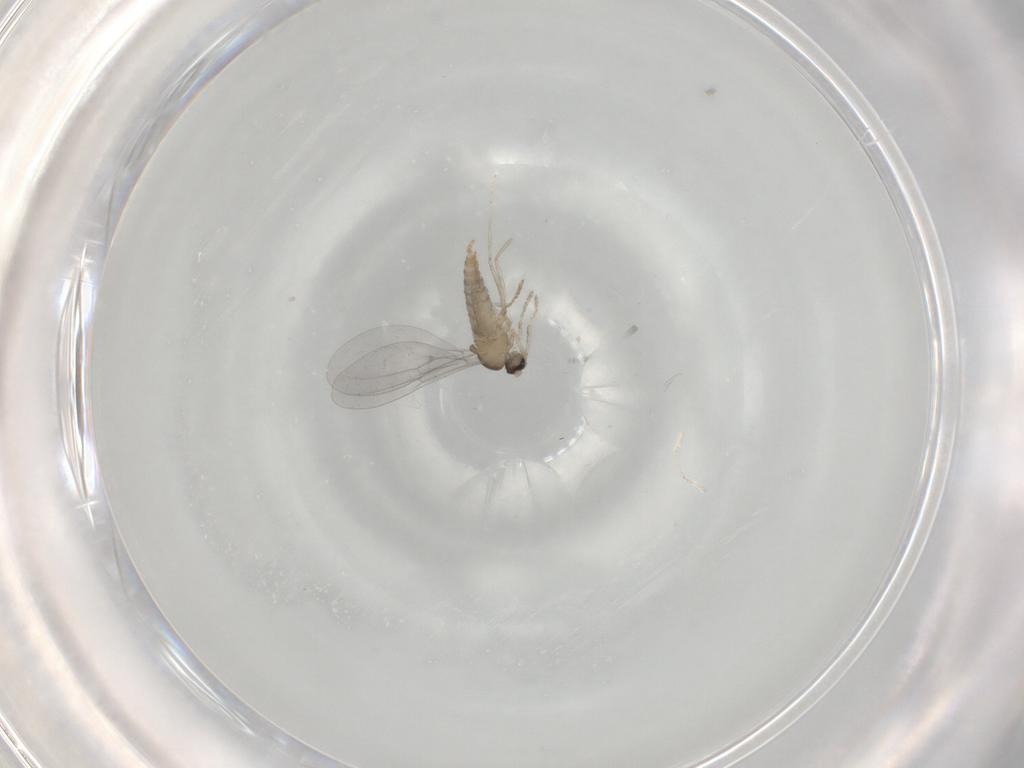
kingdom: Animalia
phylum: Arthropoda
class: Insecta
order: Diptera
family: Cecidomyiidae
